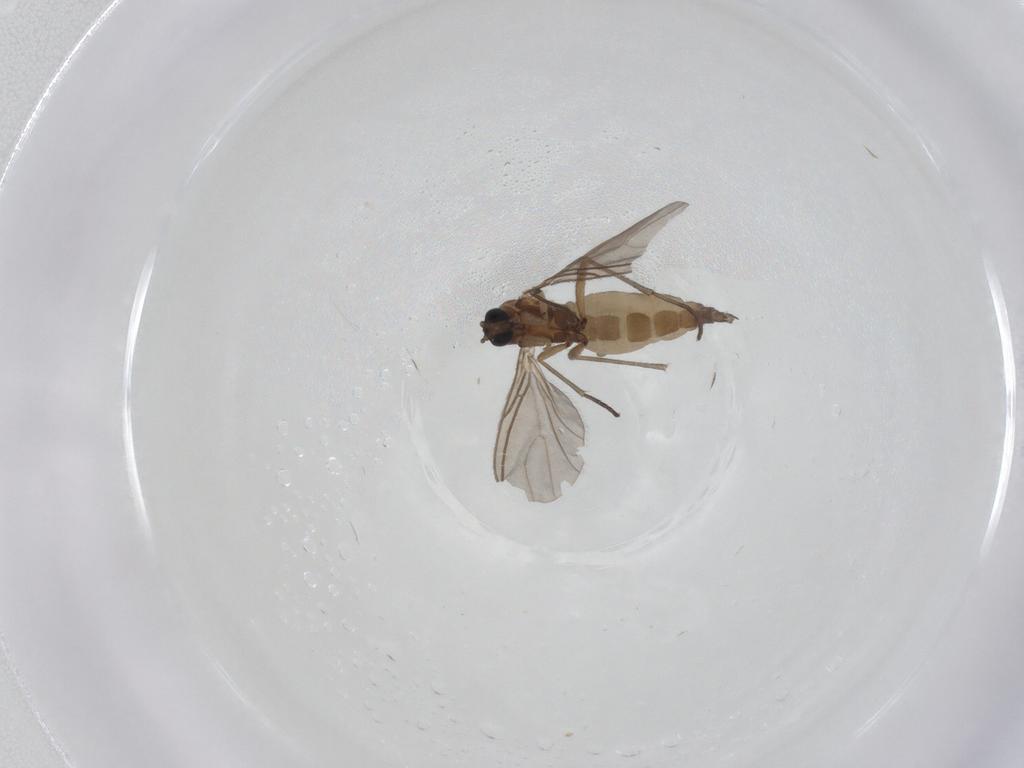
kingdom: Animalia
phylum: Arthropoda
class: Insecta
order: Diptera
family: Sciaridae
